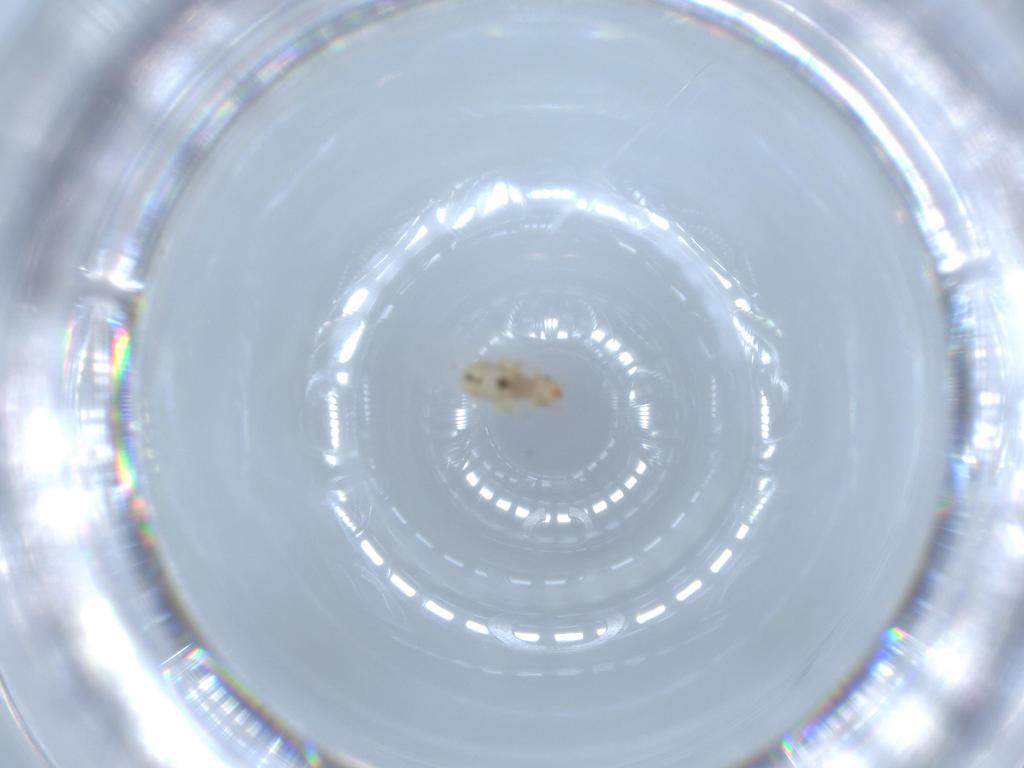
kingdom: Animalia
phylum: Arthropoda
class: Insecta
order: Psocodea
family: Liposcelididae
